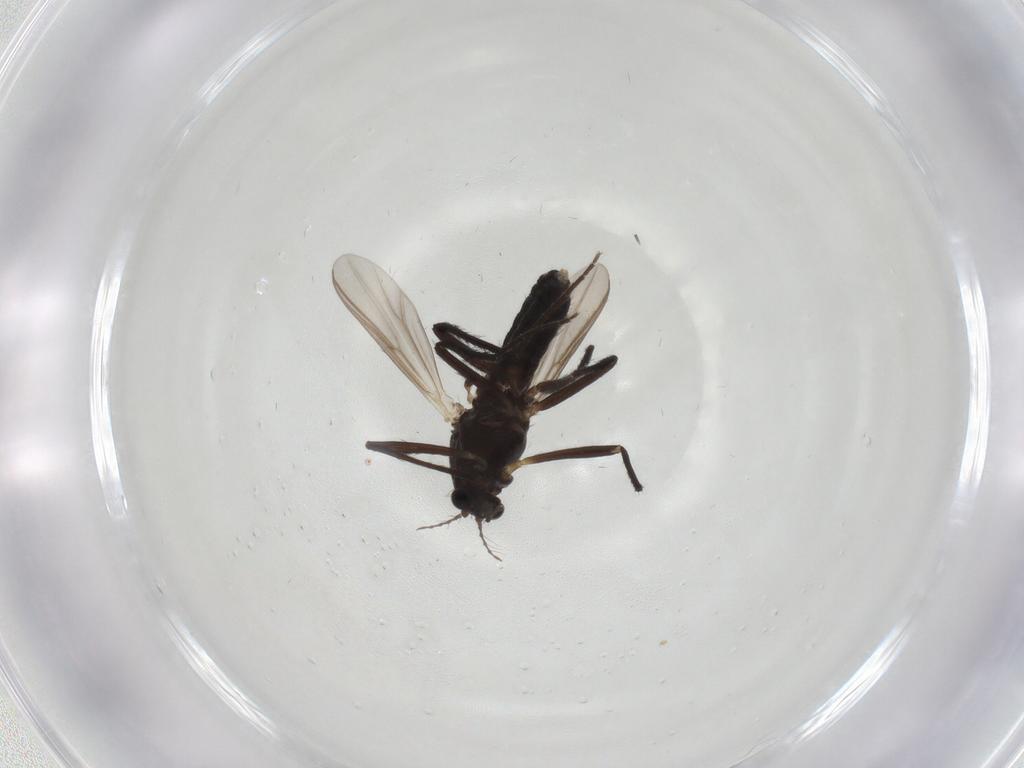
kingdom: Animalia
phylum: Arthropoda
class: Insecta
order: Diptera
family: Chironomidae
